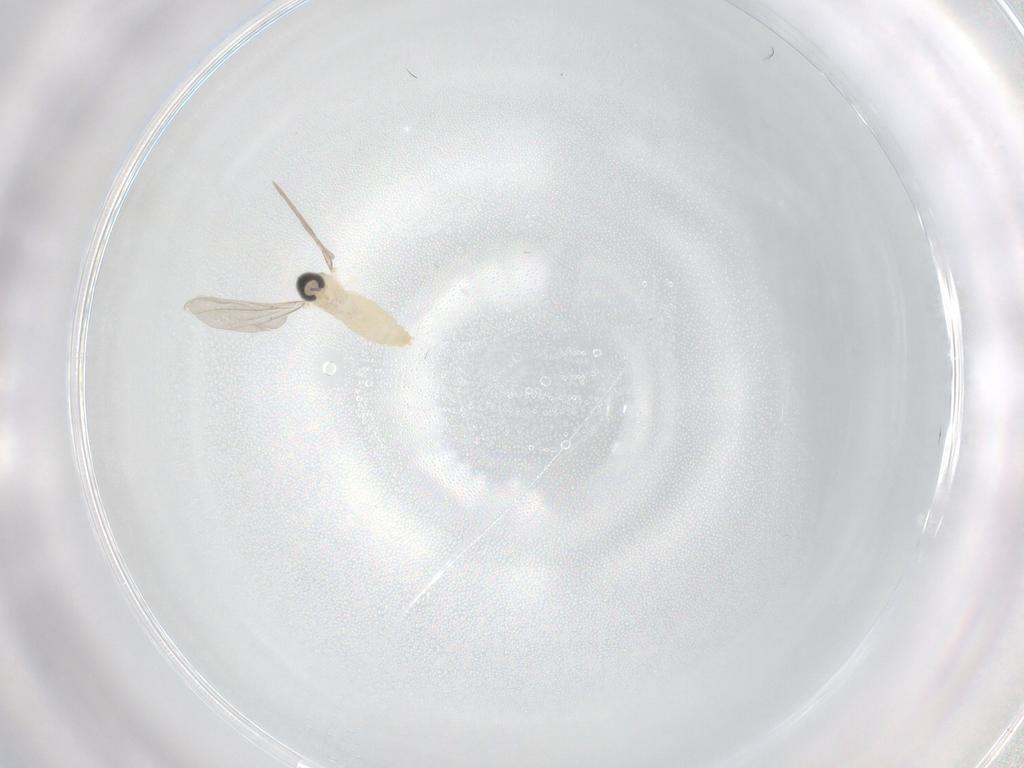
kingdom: Animalia
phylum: Arthropoda
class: Insecta
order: Diptera
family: Cecidomyiidae
